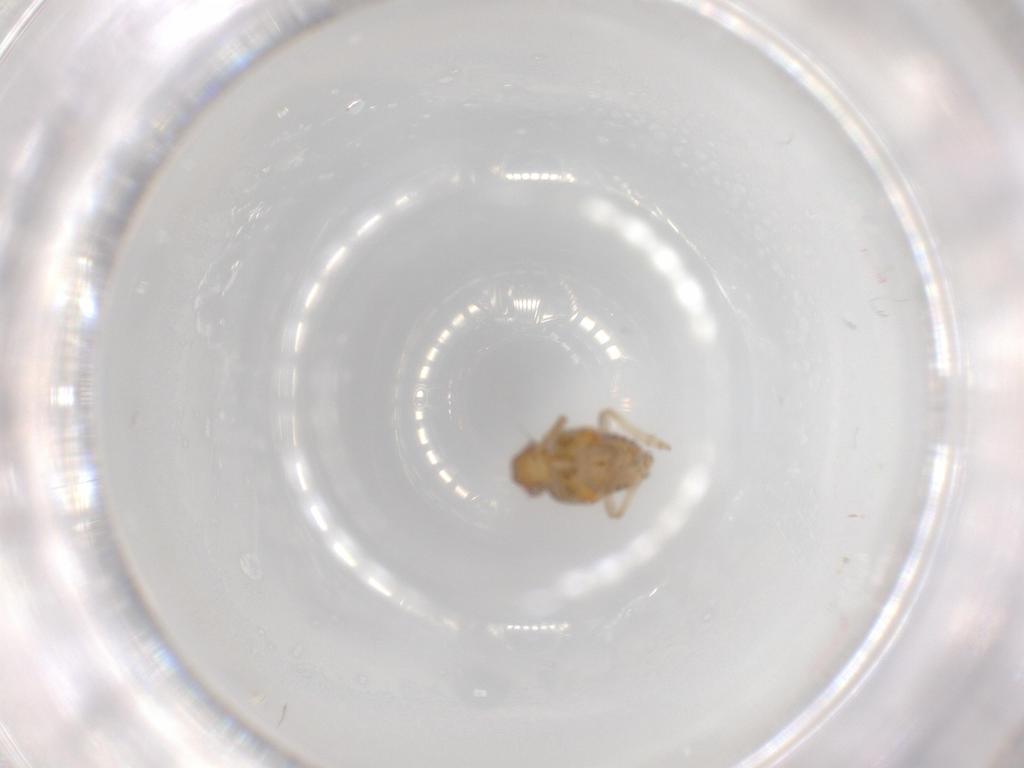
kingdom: Animalia
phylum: Arthropoda
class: Insecta
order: Hemiptera
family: Issidae
